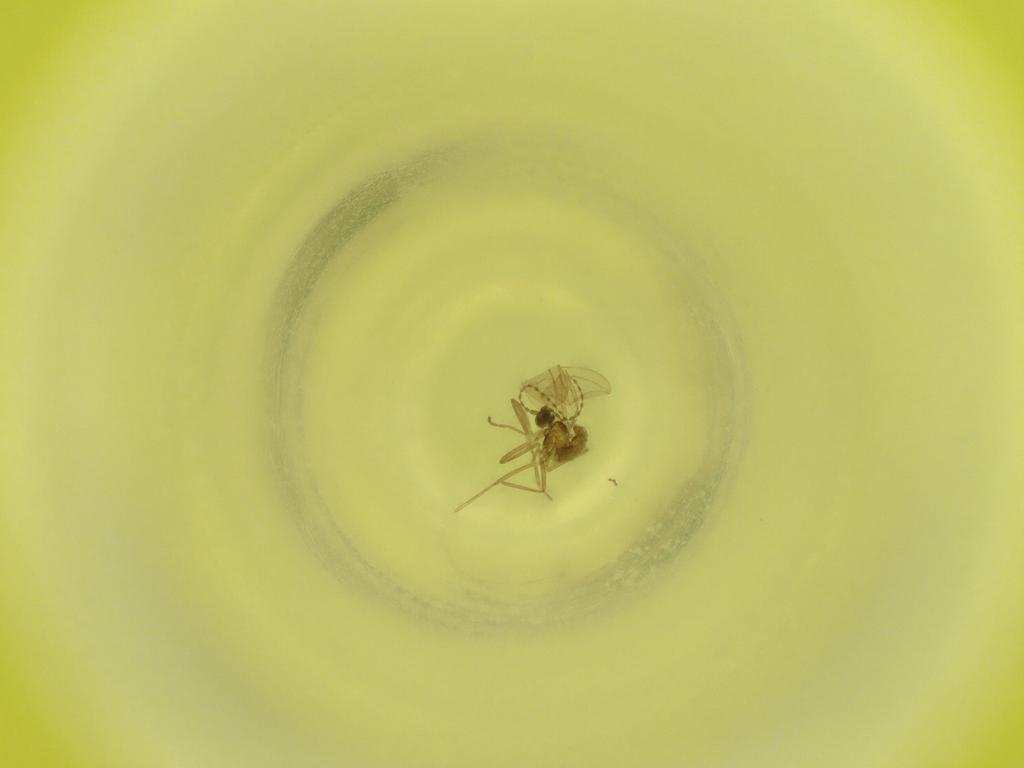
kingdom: Animalia
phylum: Arthropoda
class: Insecta
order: Diptera
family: Cecidomyiidae
